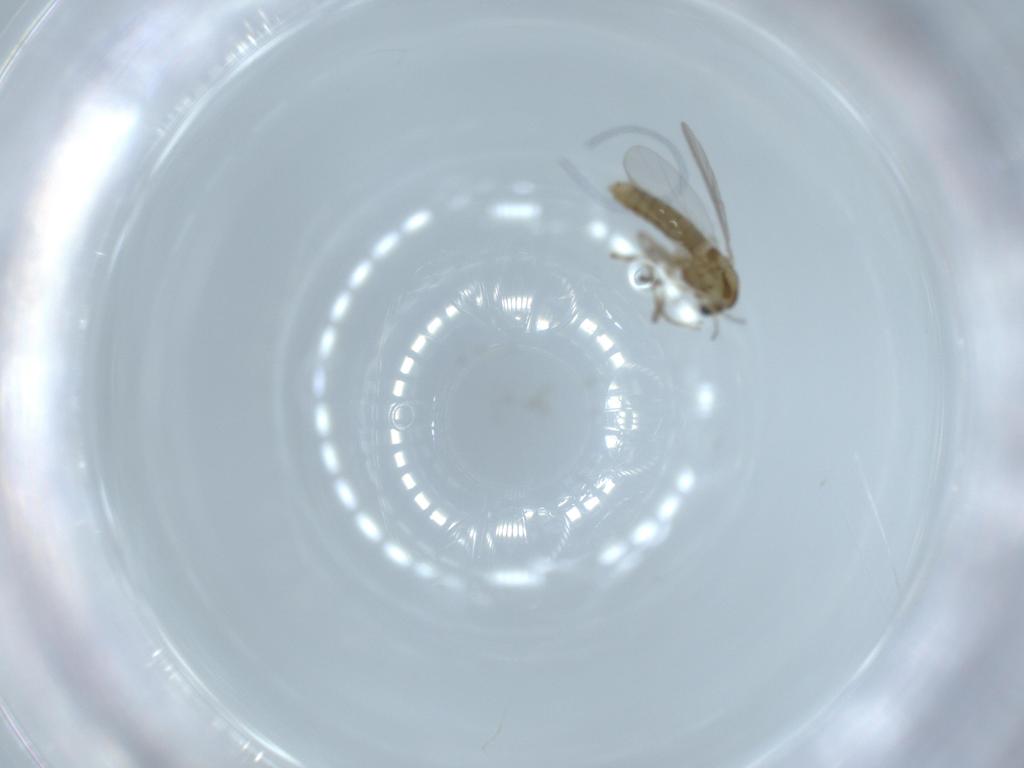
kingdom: Animalia
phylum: Arthropoda
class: Insecta
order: Diptera
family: Chironomidae
